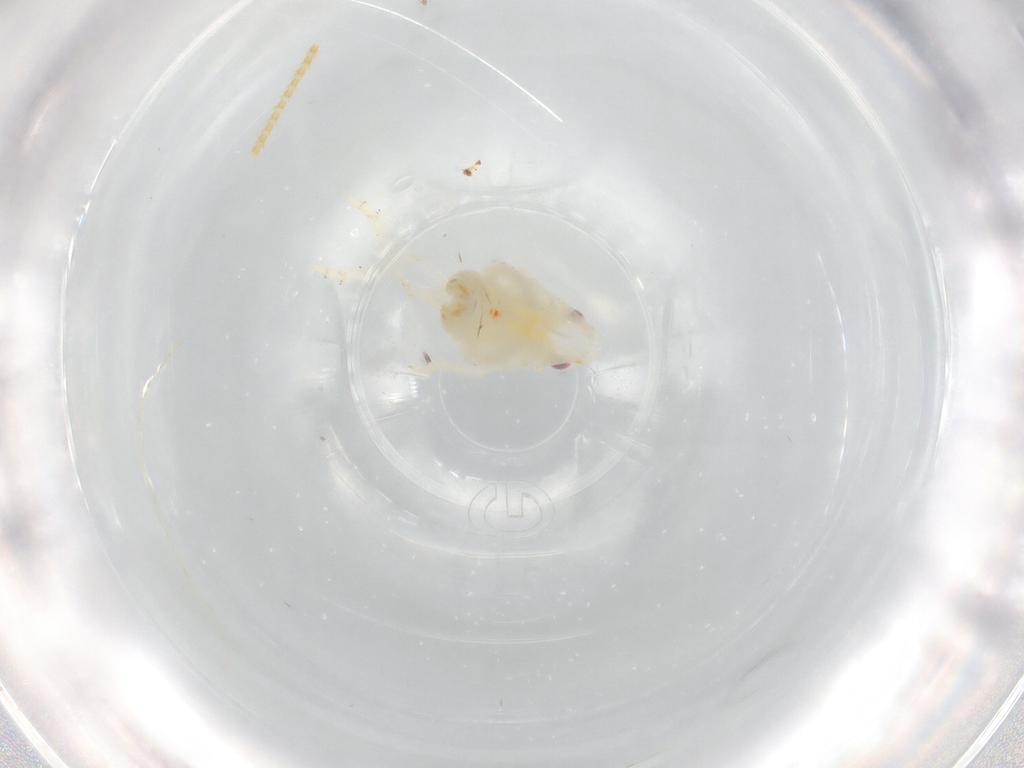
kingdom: Animalia
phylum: Arthropoda
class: Insecta
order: Hemiptera
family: Flatidae
